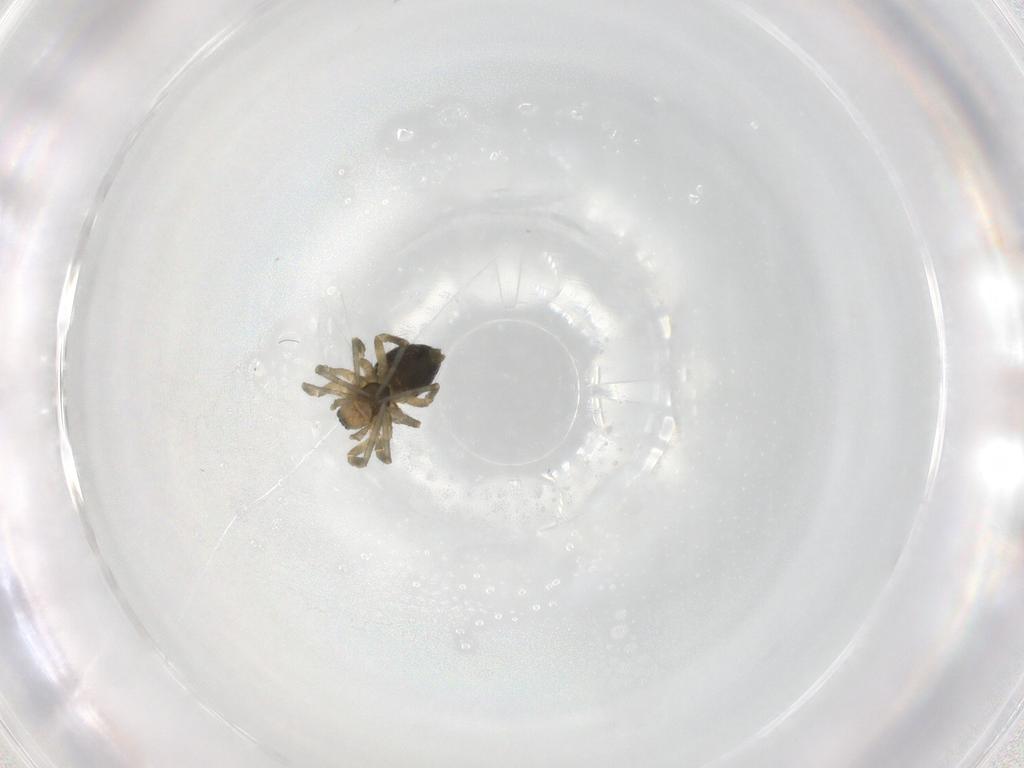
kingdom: Animalia
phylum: Arthropoda
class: Arachnida
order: Araneae
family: Linyphiidae
